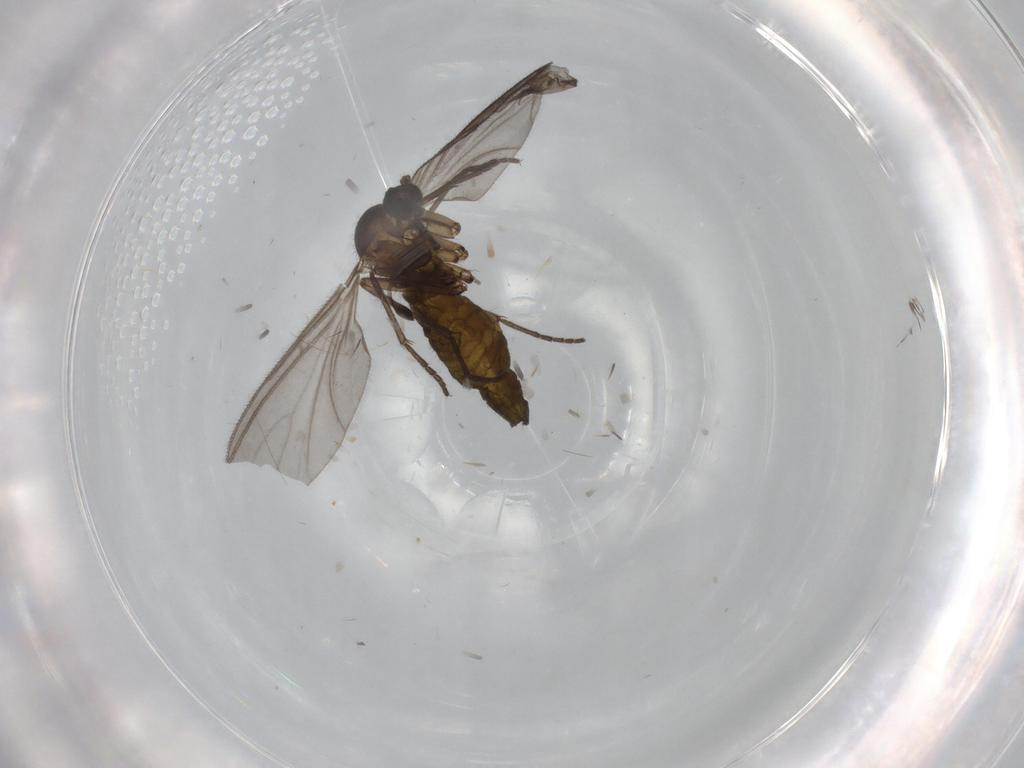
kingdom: Animalia
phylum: Arthropoda
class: Insecta
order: Diptera
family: Sciaridae
